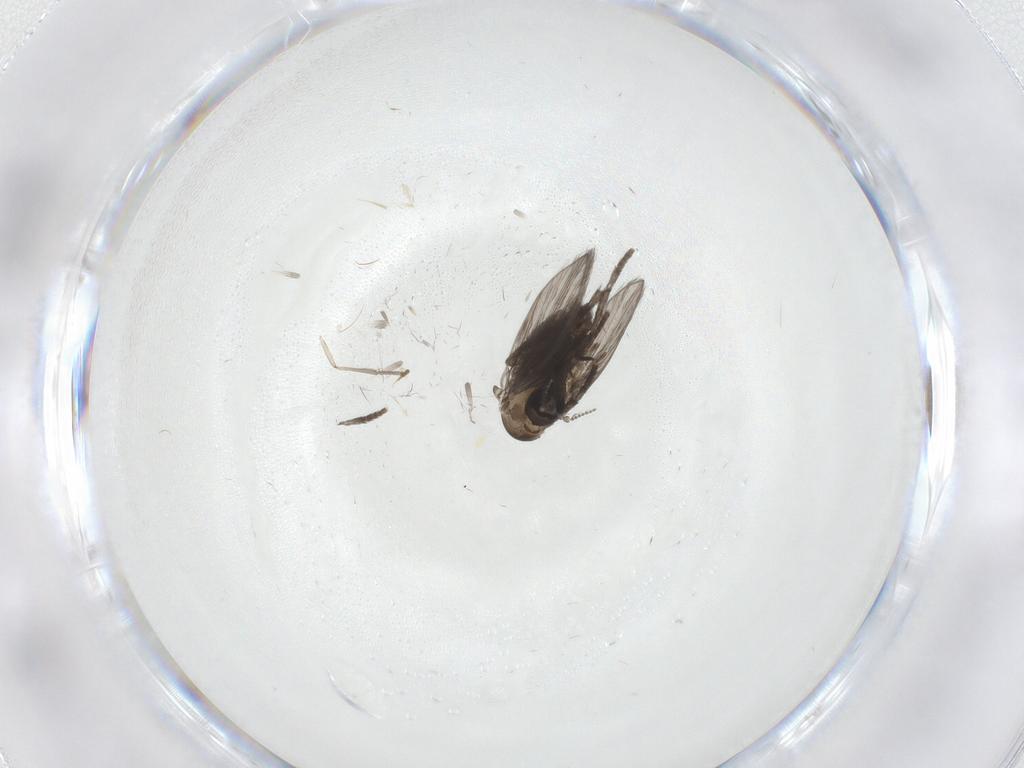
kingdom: Animalia
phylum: Arthropoda
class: Insecta
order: Diptera
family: Psychodidae
